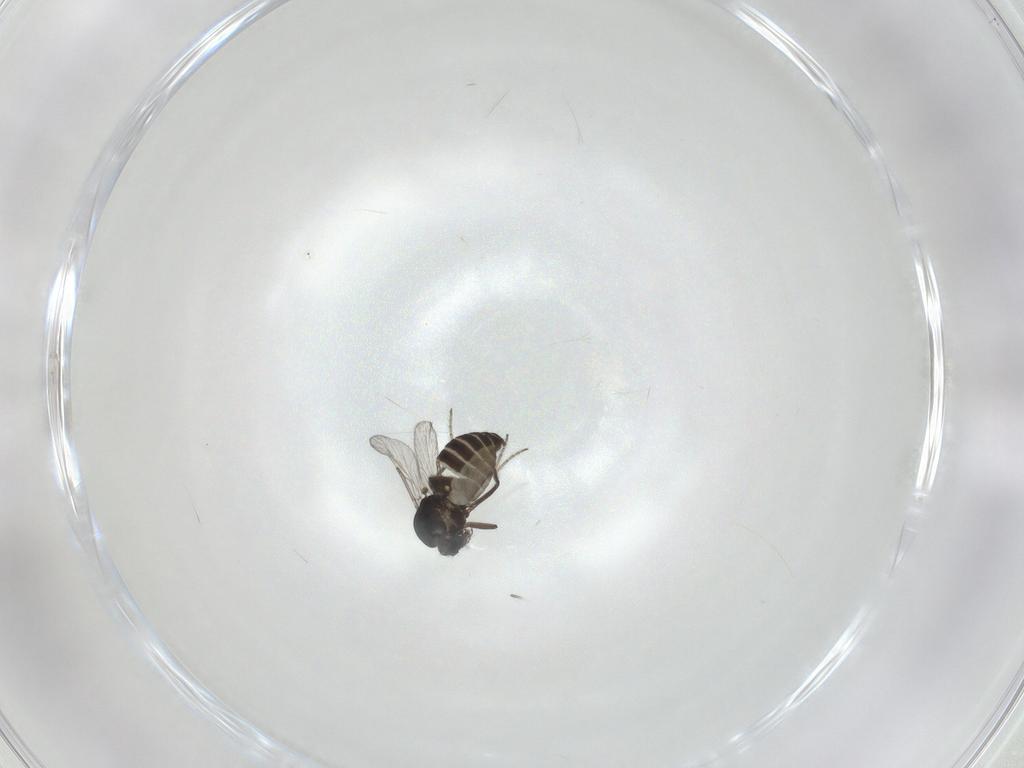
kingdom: Animalia
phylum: Arthropoda
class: Insecta
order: Diptera
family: Ceratopogonidae
